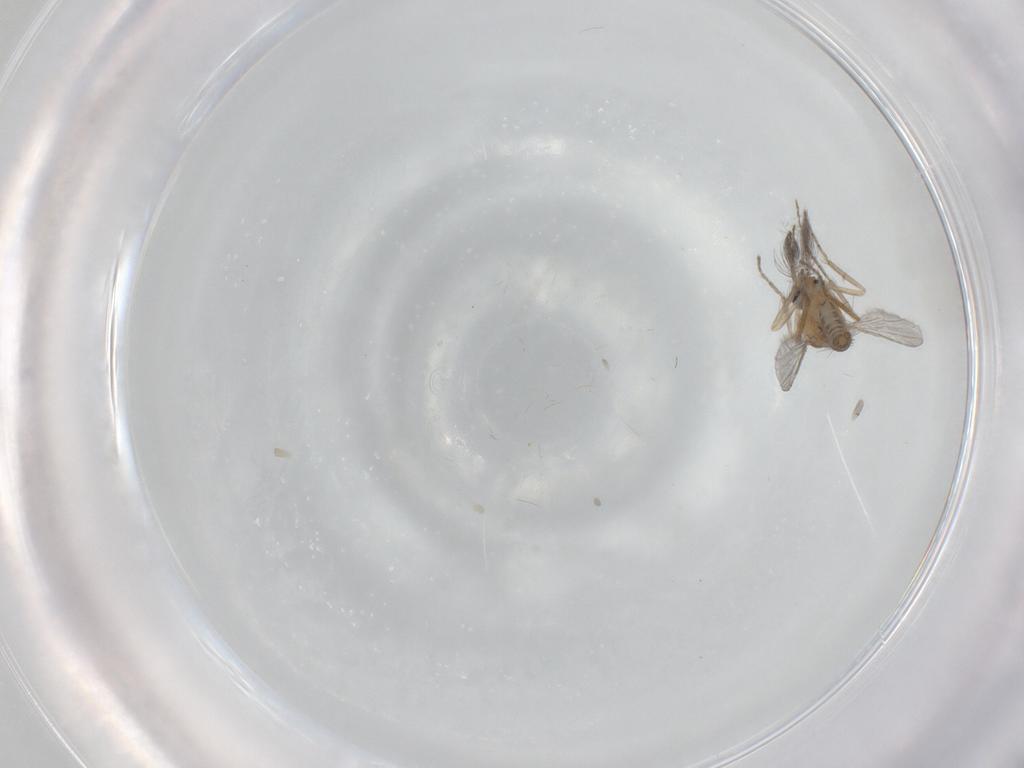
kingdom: Animalia
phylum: Arthropoda
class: Insecta
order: Diptera
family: Ceratopogonidae
